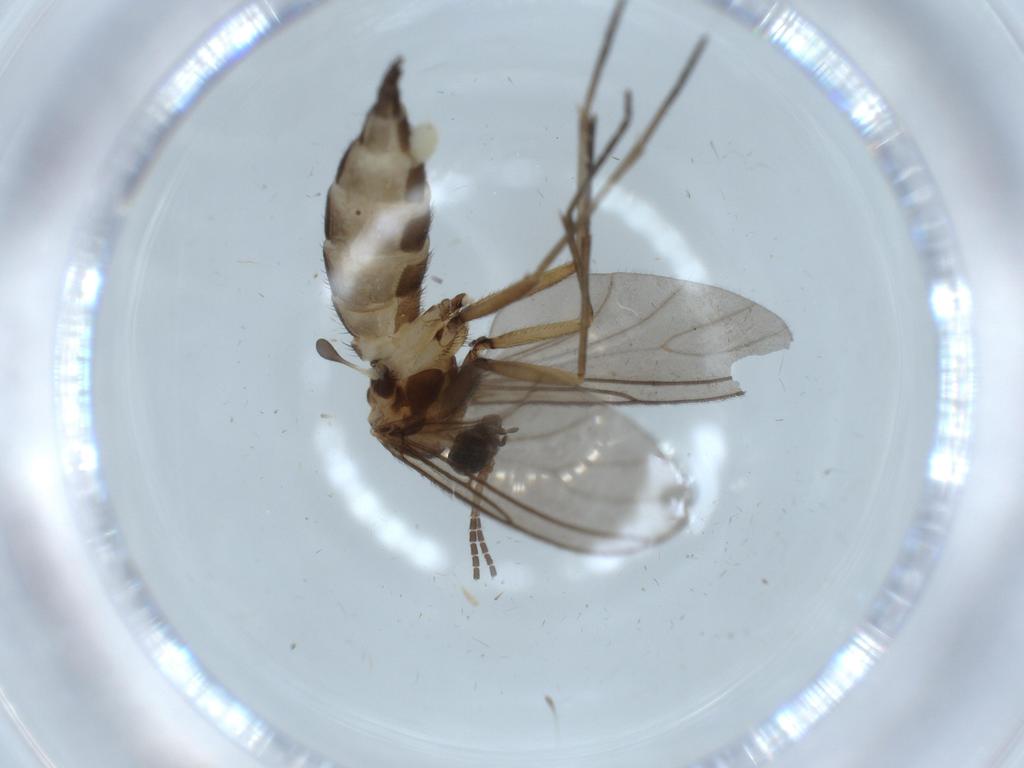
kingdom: Animalia
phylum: Arthropoda
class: Insecta
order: Diptera
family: Sciaridae
